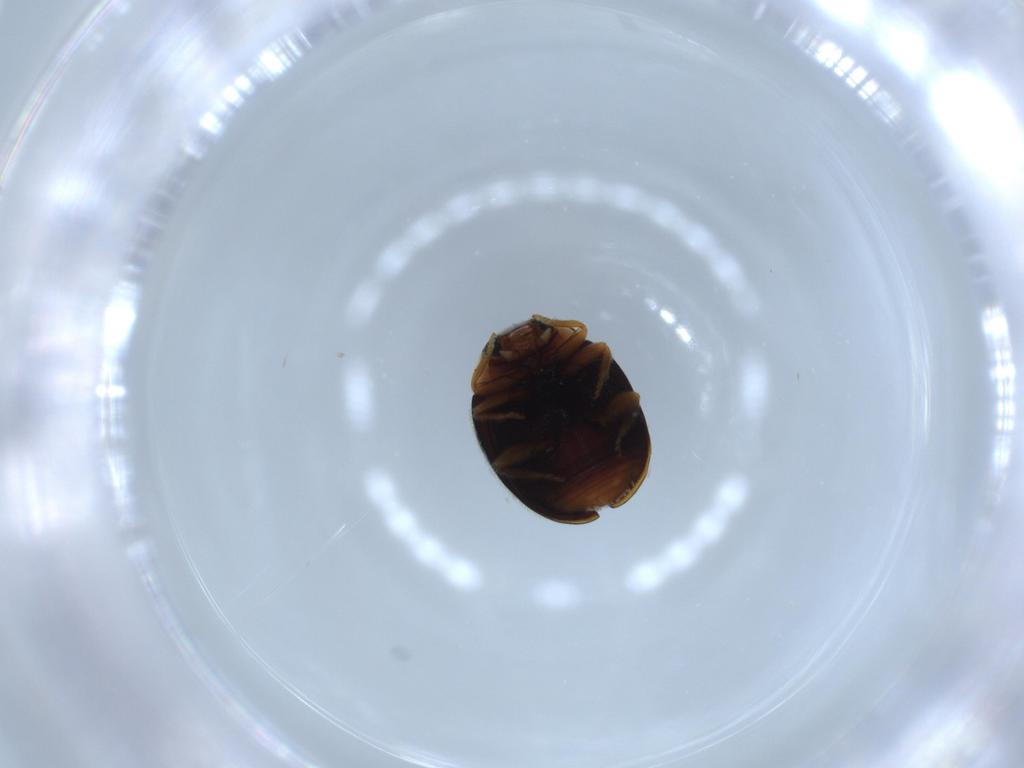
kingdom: Animalia
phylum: Arthropoda
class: Insecta
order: Coleoptera
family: Coccinellidae
